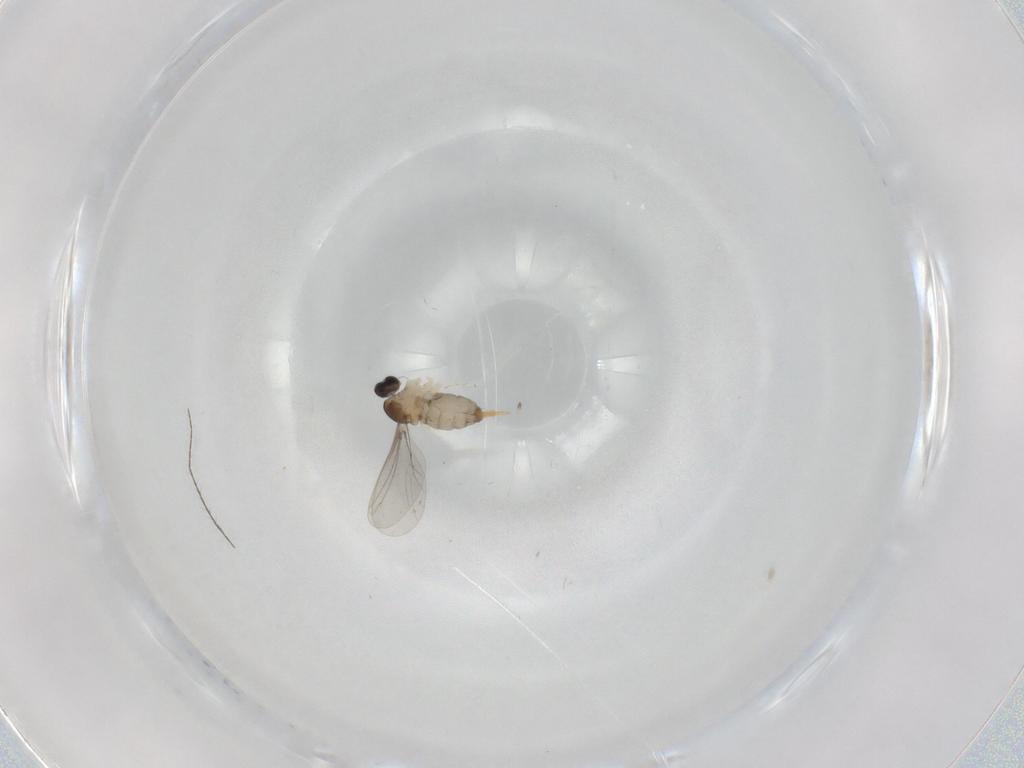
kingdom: Animalia
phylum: Arthropoda
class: Insecta
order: Diptera
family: Cecidomyiidae
